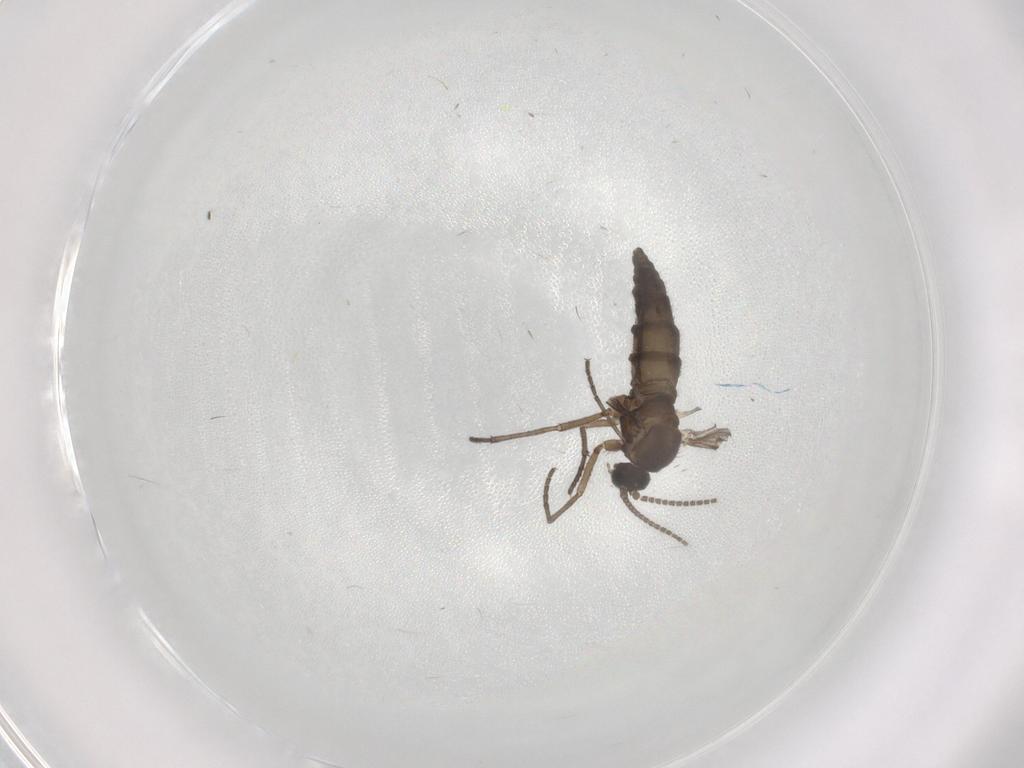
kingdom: Animalia
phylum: Arthropoda
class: Insecta
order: Diptera
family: Sciaridae
